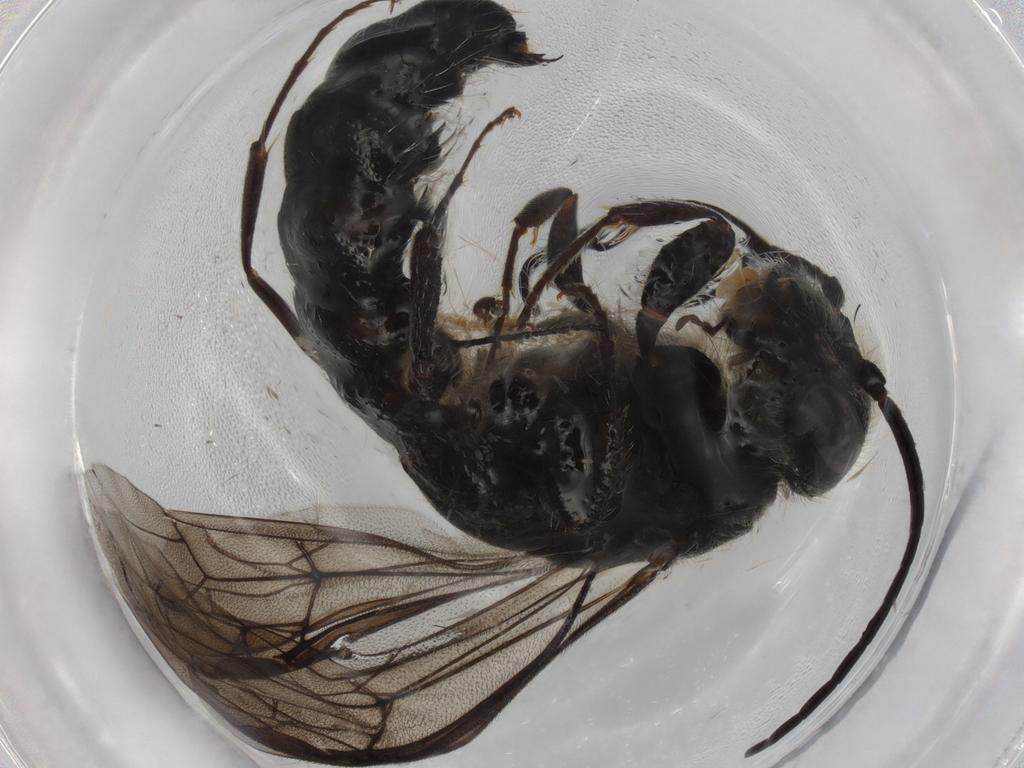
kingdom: Animalia
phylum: Arthropoda
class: Insecta
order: Hymenoptera
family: Thynnidae
